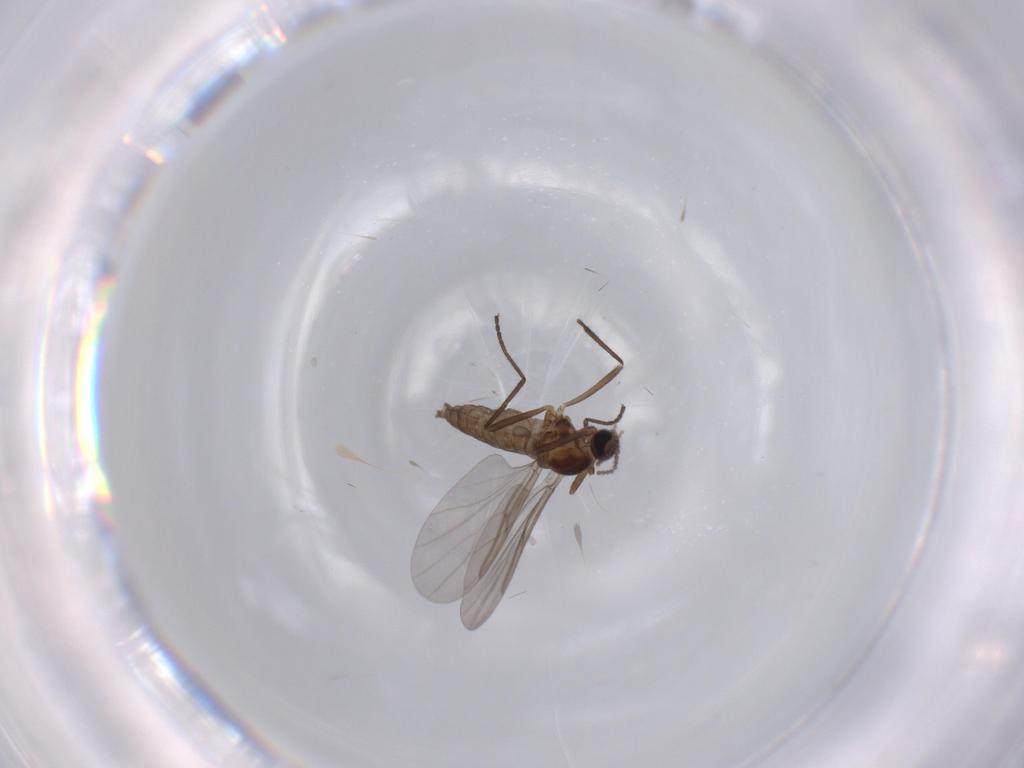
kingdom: Animalia
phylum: Arthropoda
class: Insecta
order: Diptera
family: Cecidomyiidae
